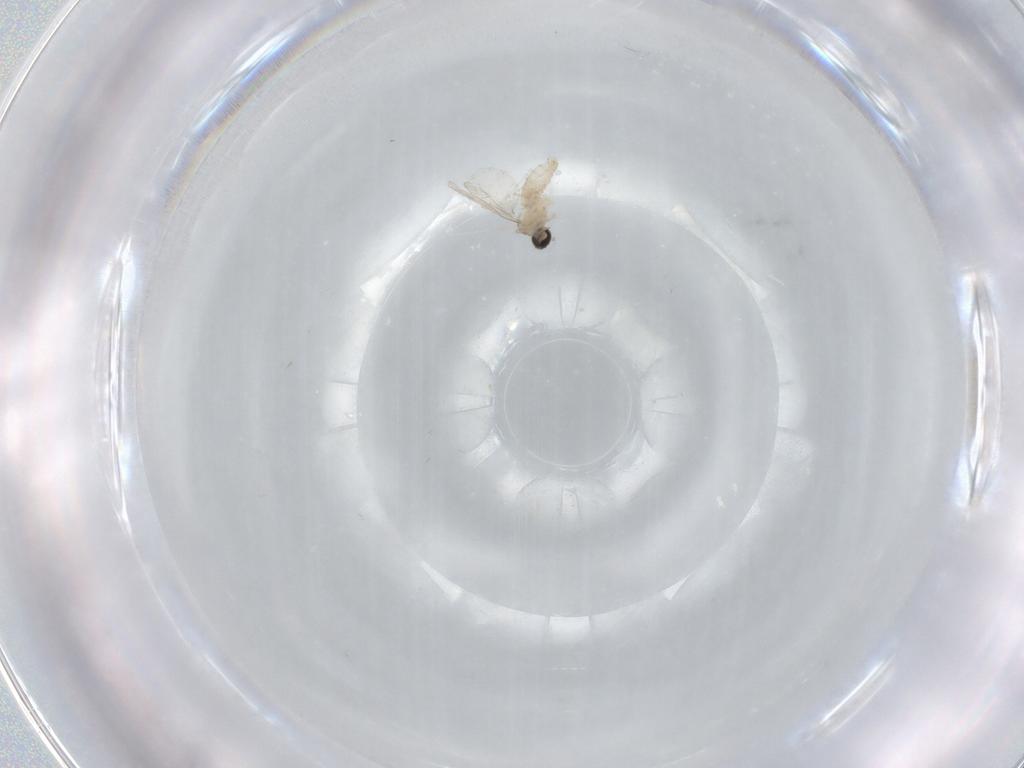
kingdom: Animalia
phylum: Arthropoda
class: Insecta
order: Diptera
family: Cecidomyiidae
